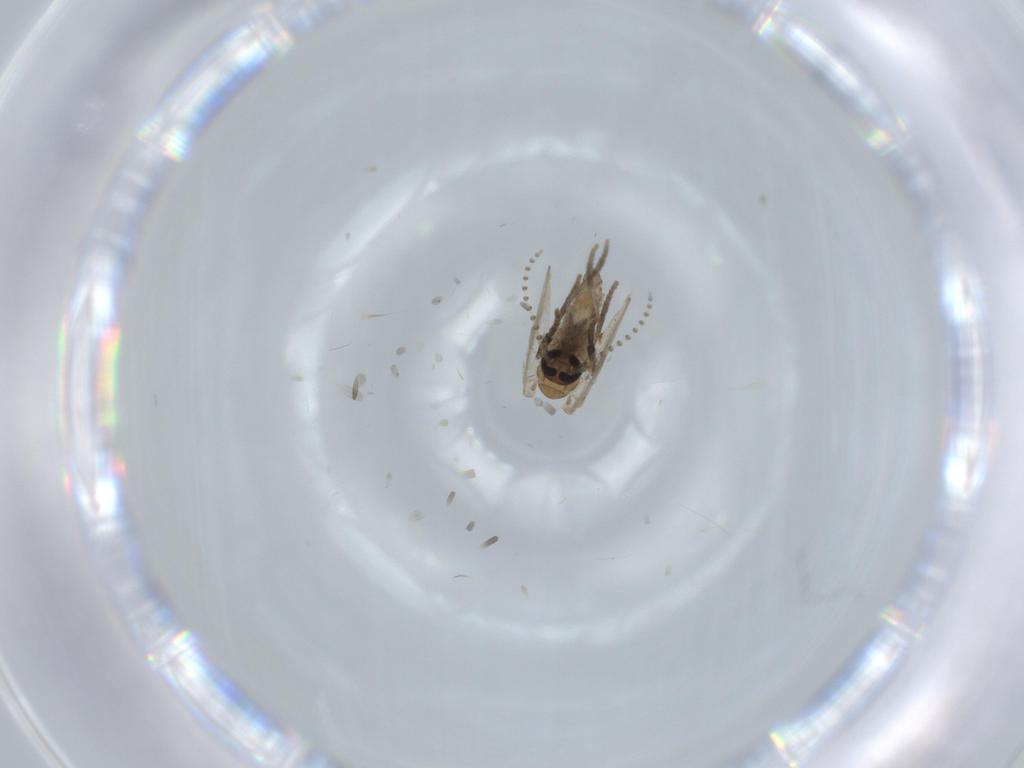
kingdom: Animalia
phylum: Arthropoda
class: Insecta
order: Diptera
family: Psychodidae
